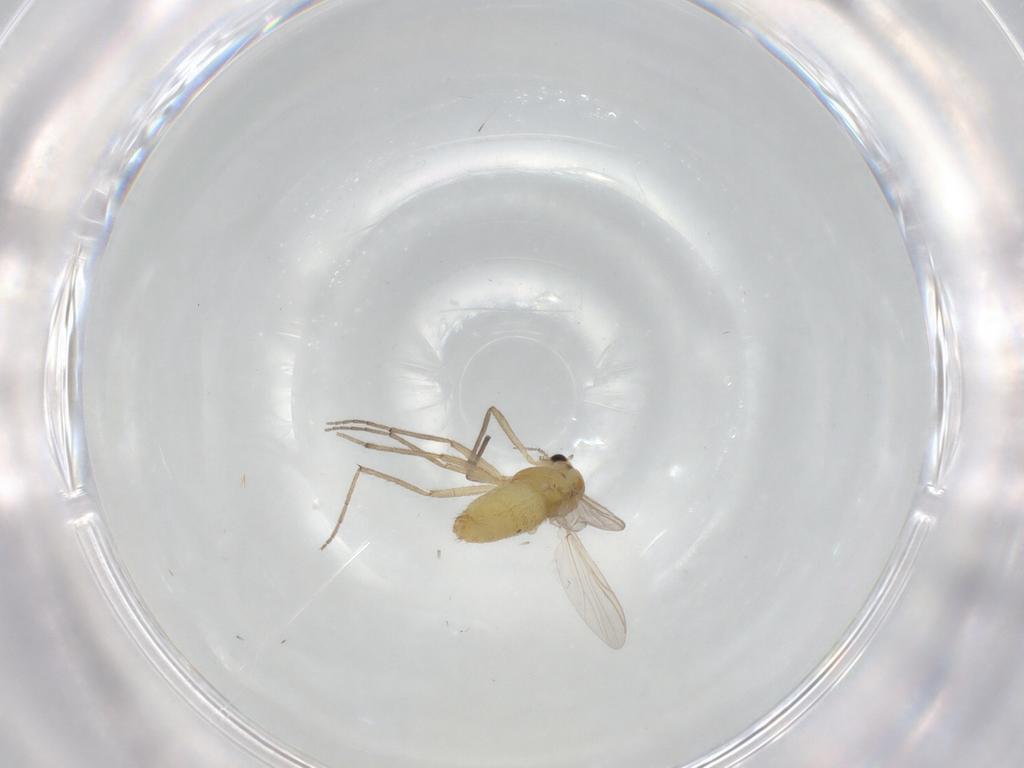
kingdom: Animalia
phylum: Arthropoda
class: Insecta
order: Diptera
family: Chironomidae
